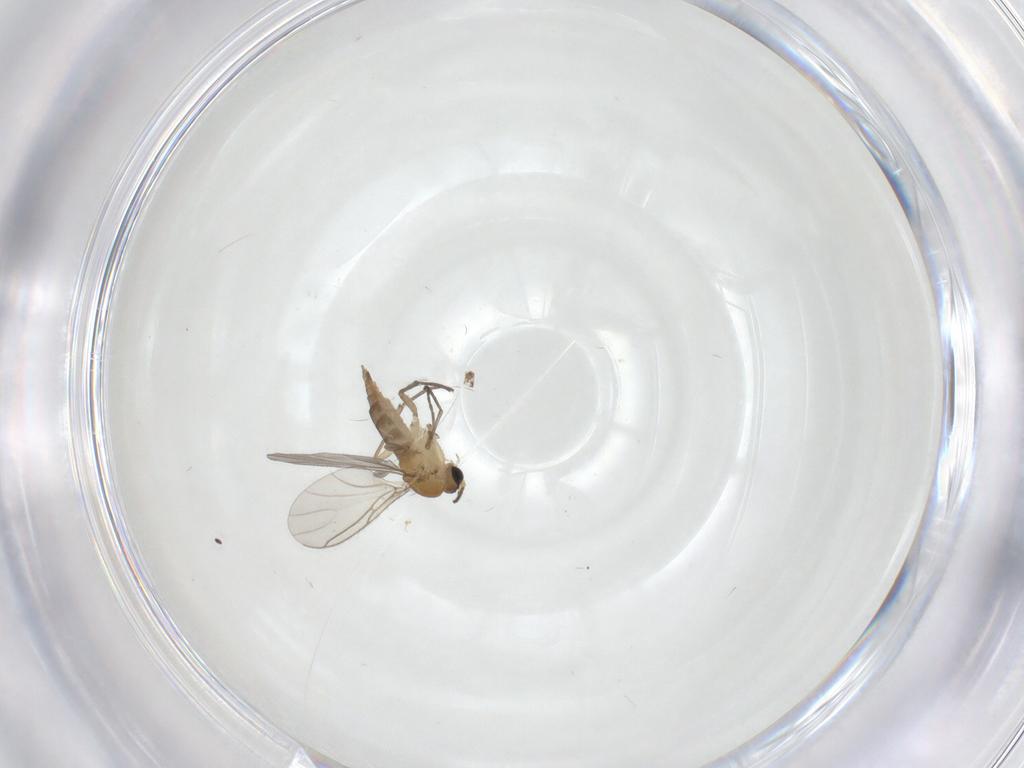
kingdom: Animalia
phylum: Arthropoda
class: Insecta
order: Diptera
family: Sciaridae
